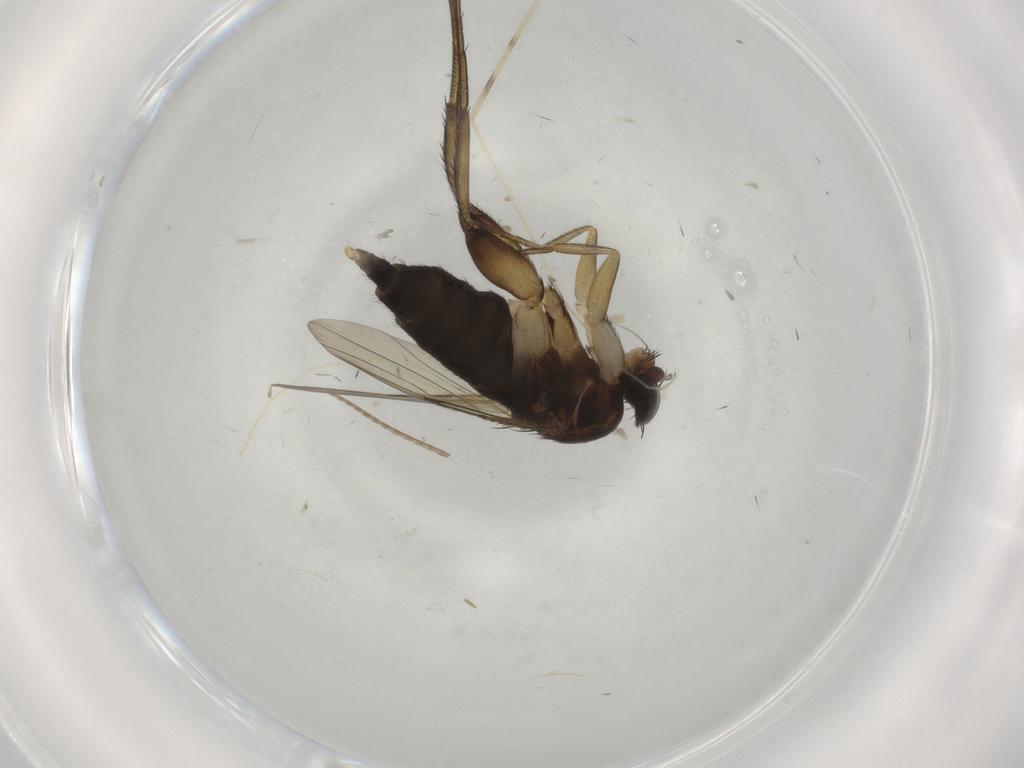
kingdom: Animalia
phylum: Arthropoda
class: Insecta
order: Diptera
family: Phoridae
